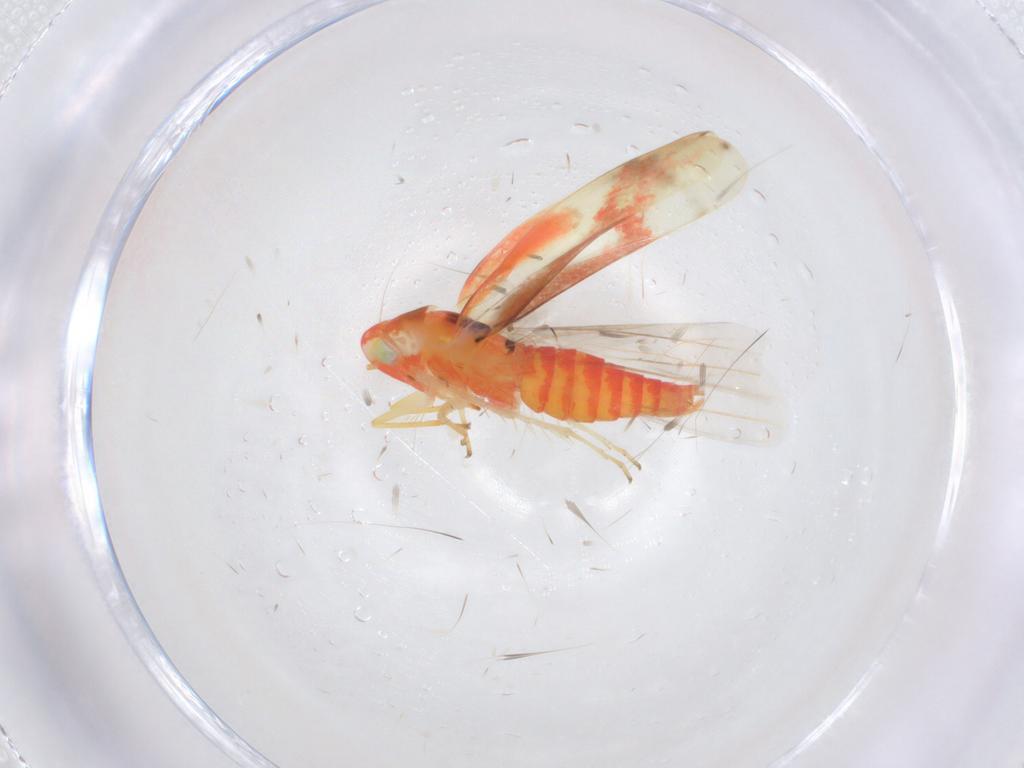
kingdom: Animalia
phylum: Arthropoda
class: Insecta
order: Hemiptera
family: Cicadellidae
